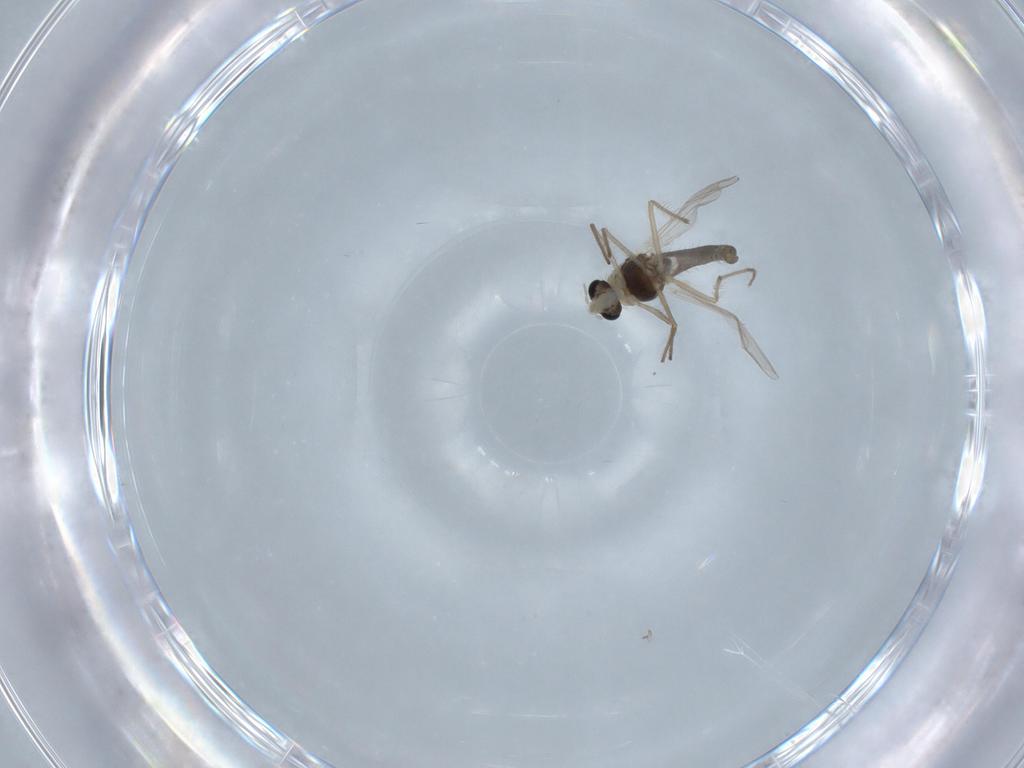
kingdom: Animalia
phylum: Arthropoda
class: Insecta
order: Diptera
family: Chironomidae
